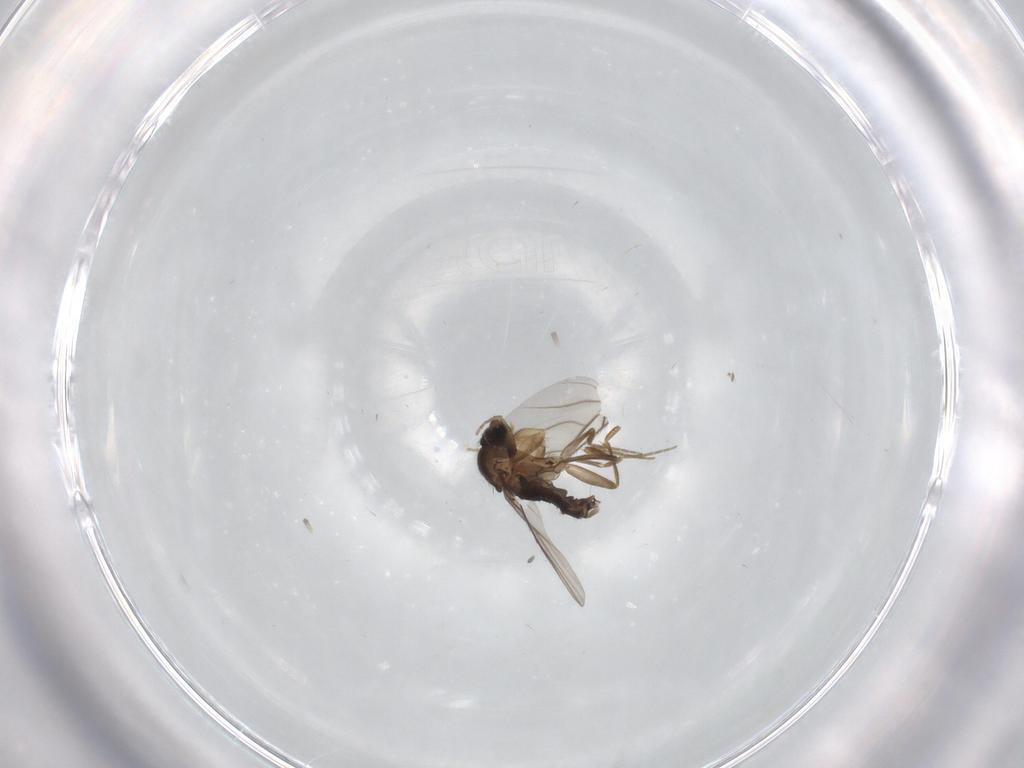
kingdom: Animalia
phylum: Arthropoda
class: Insecta
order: Diptera
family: Phoridae
